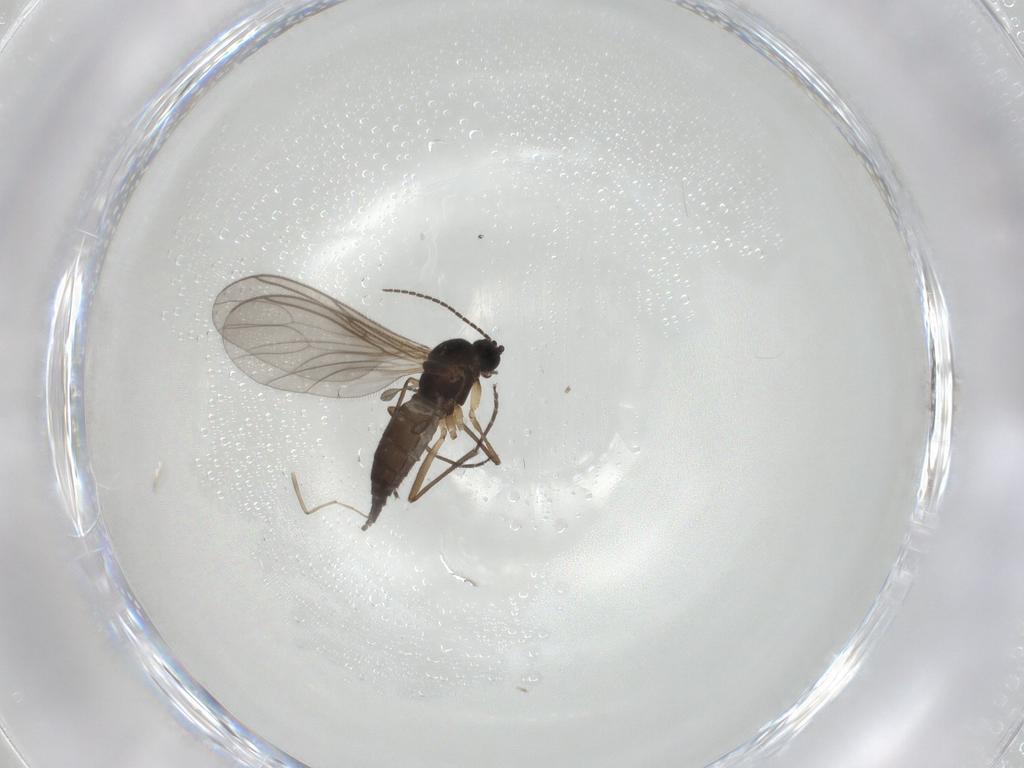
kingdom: Animalia
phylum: Arthropoda
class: Insecta
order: Diptera
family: Sciaridae
